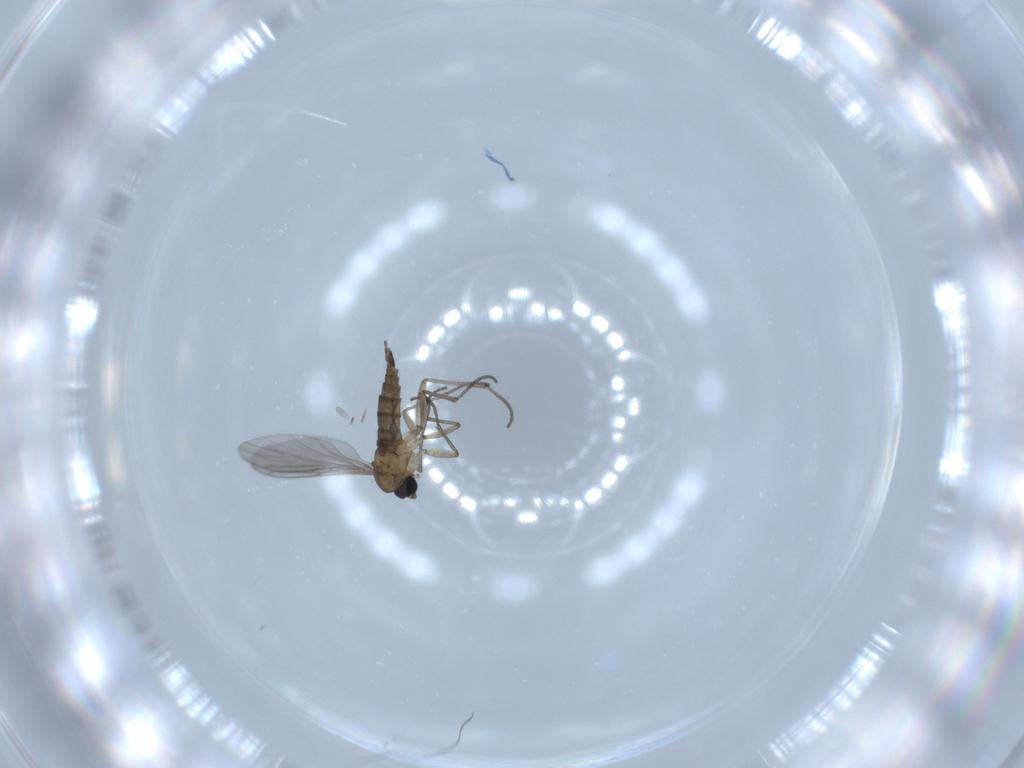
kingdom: Animalia
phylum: Arthropoda
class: Insecta
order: Diptera
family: Sciaridae
